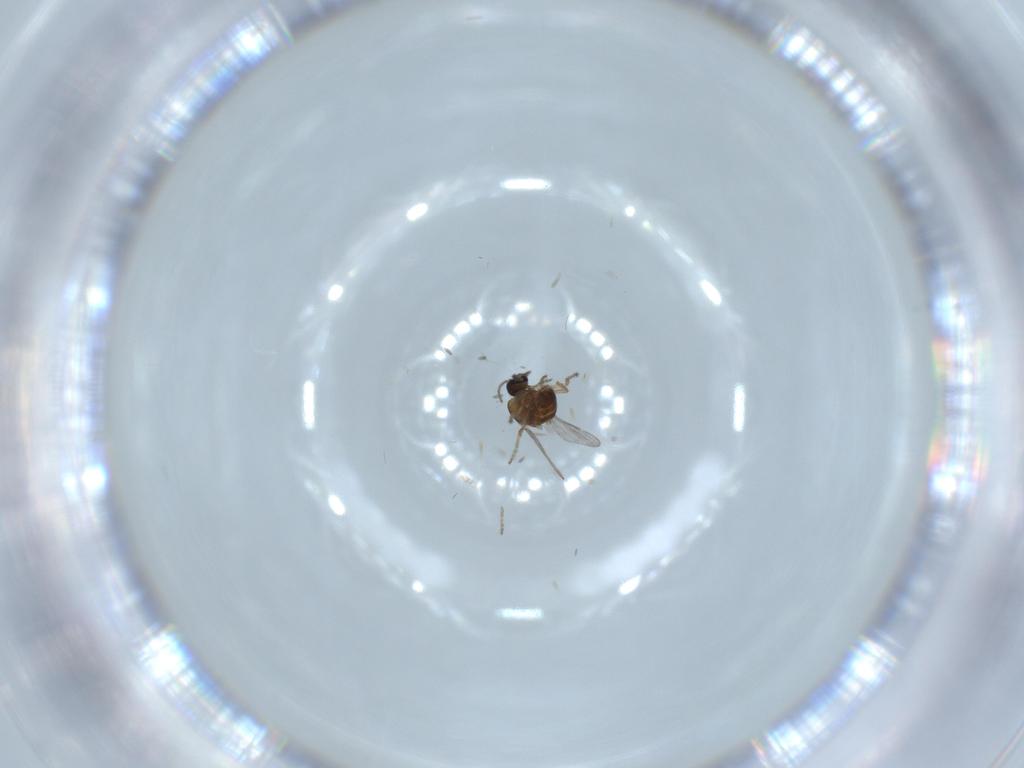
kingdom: Animalia
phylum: Arthropoda
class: Insecta
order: Diptera
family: Ceratopogonidae
